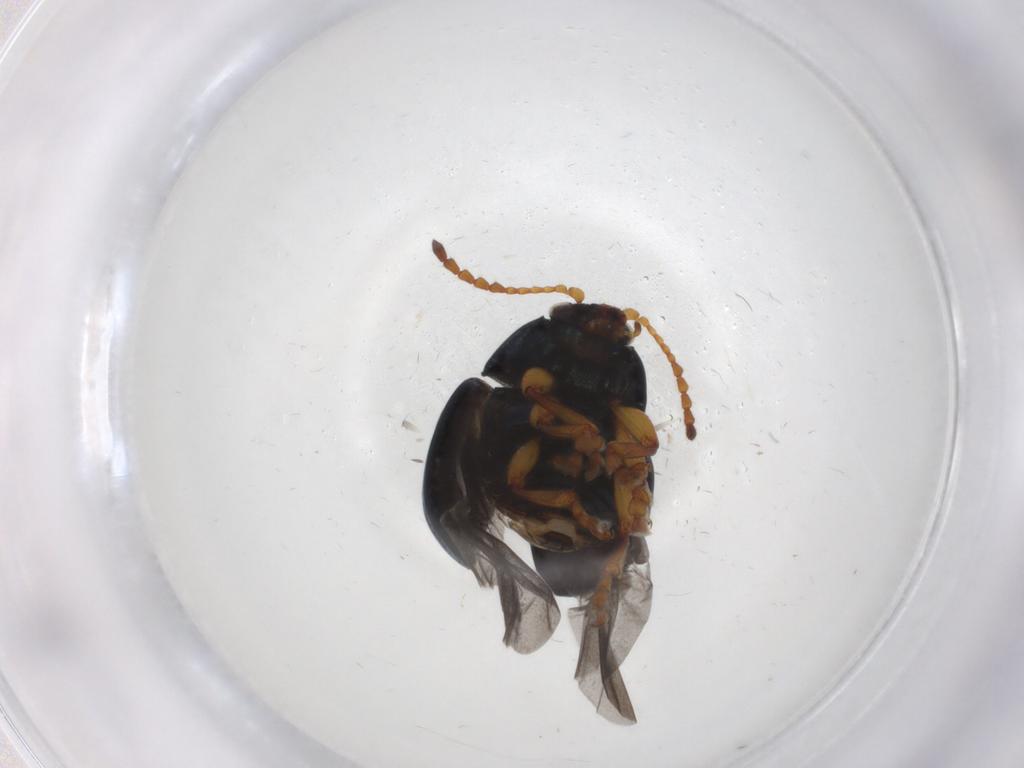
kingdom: Animalia
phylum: Arthropoda
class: Insecta
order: Coleoptera
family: Chrysomelidae
